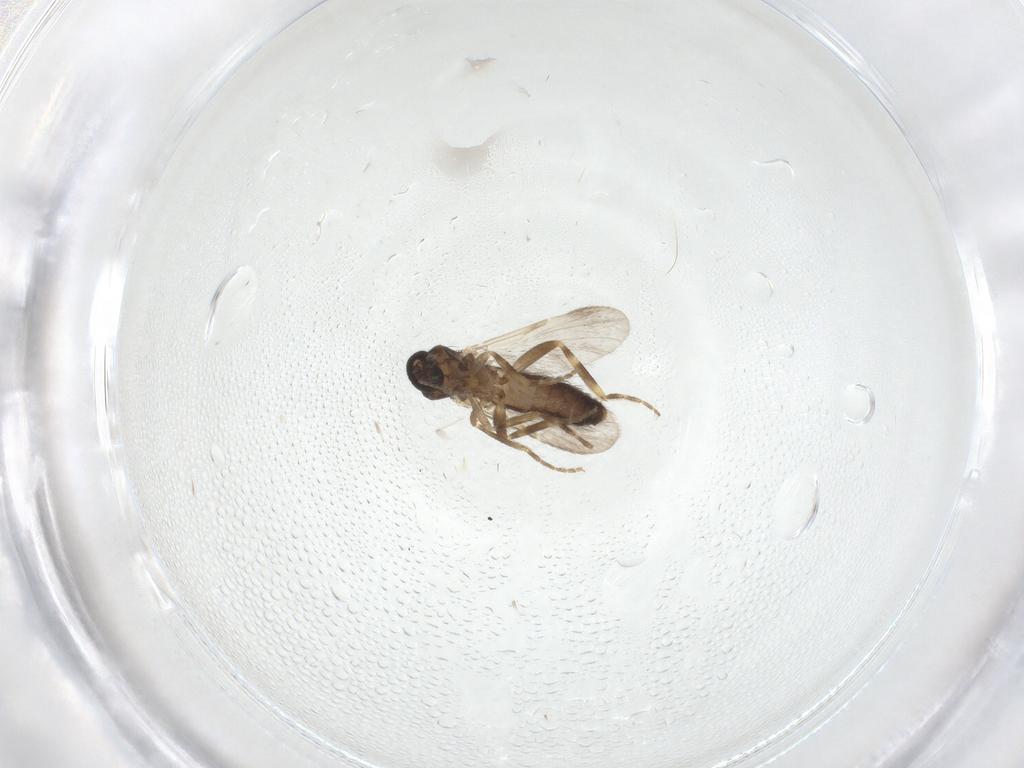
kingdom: Animalia
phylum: Arthropoda
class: Insecta
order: Diptera
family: Ceratopogonidae
